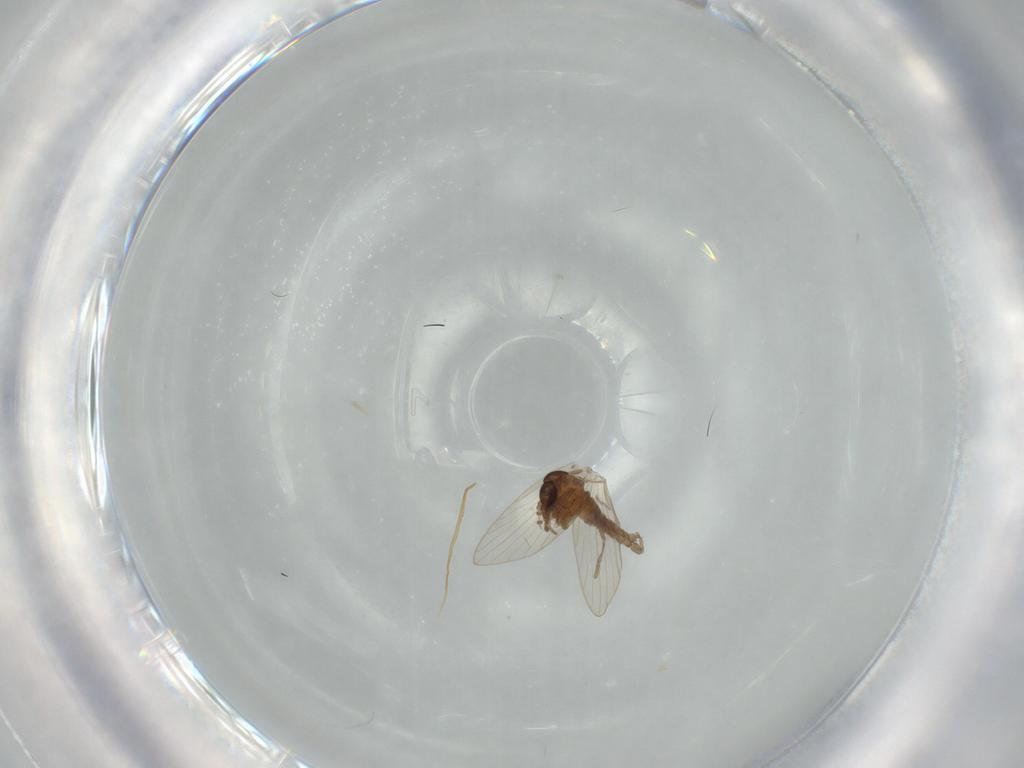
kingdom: Animalia
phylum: Arthropoda
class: Insecta
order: Diptera
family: Psychodidae
